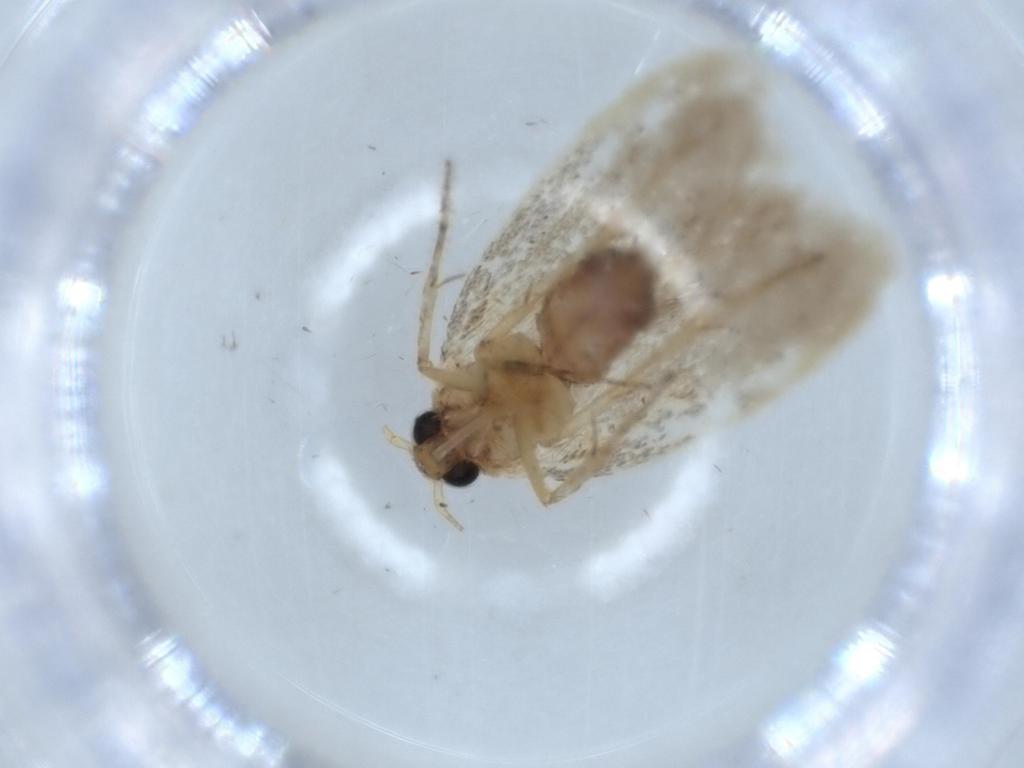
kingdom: Animalia
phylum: Arthropoda
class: Insecta
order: Lepidoptera
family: Tineidae
